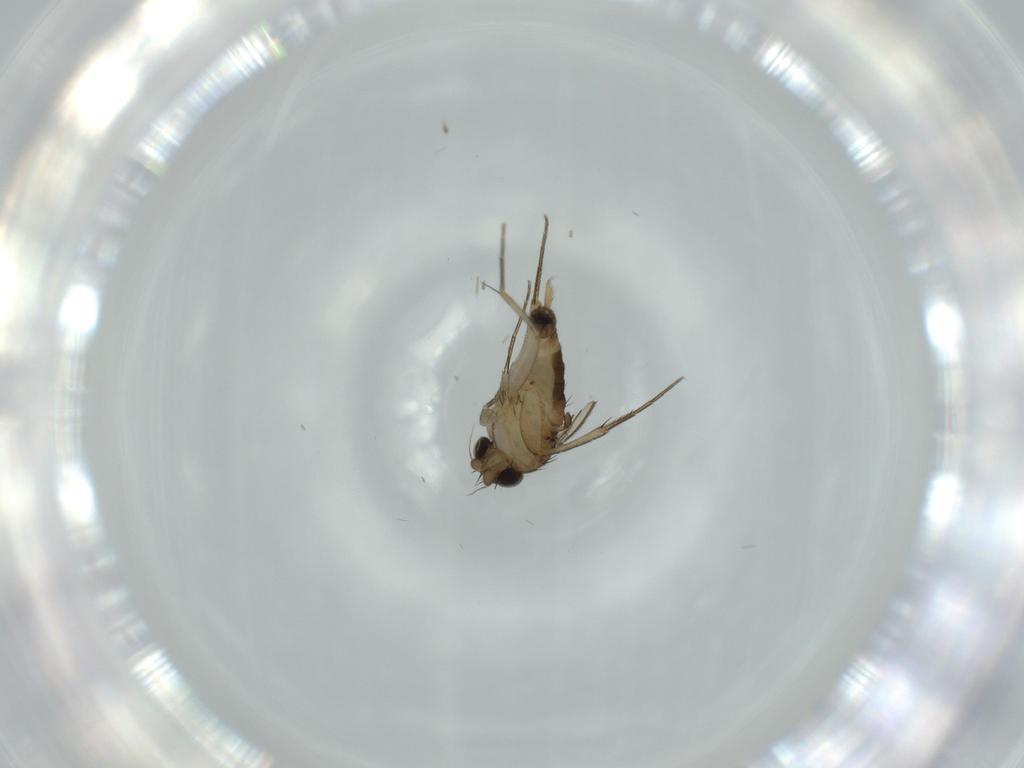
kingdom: Animalia
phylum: Arthropoda
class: Insecta
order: Diptera
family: Phoridae
